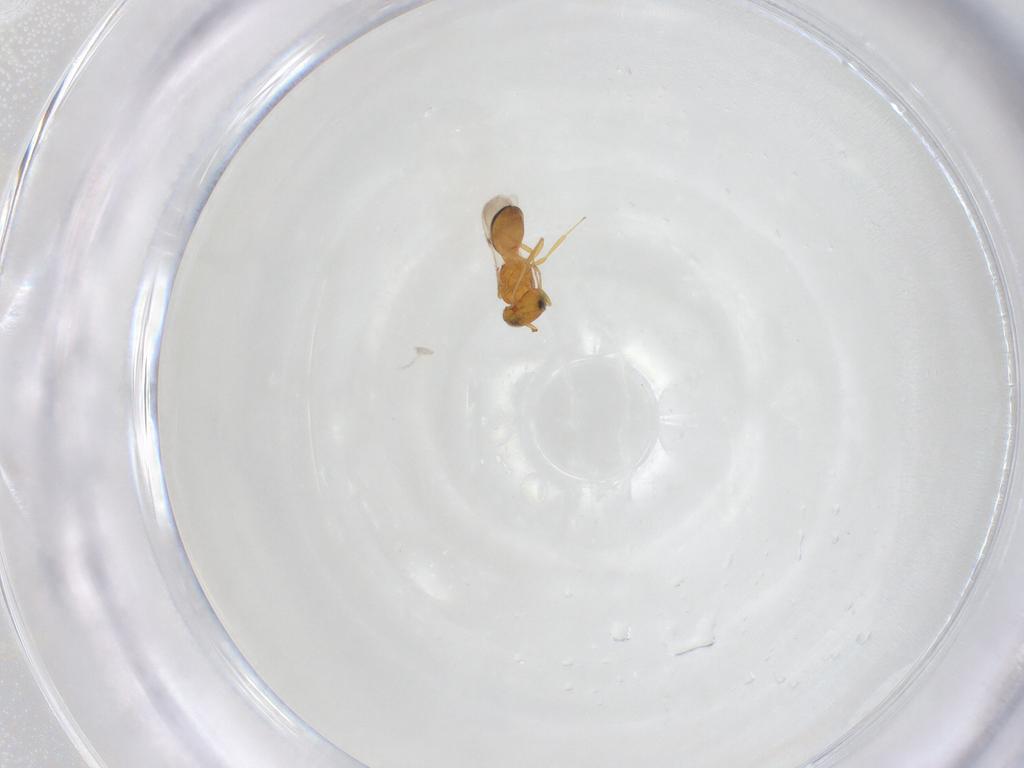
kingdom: Animalia
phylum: Arthropoda
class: Insecta
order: Hymenoptera
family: Scelionidae
